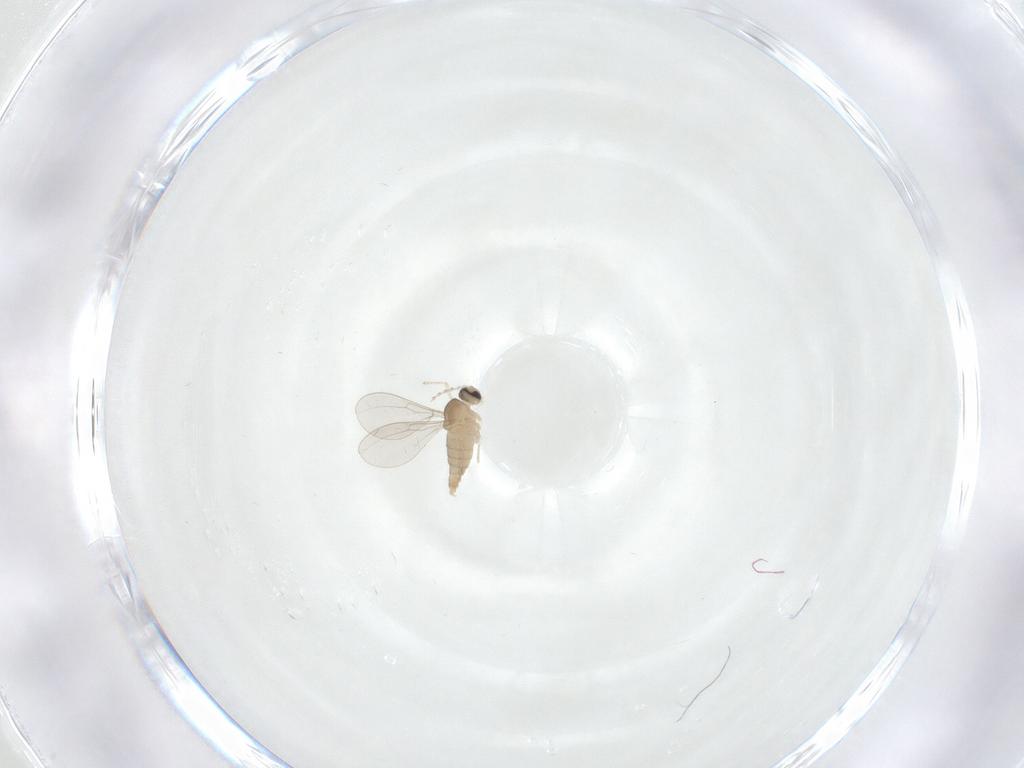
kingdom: Animalia
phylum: Arthropoda
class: Insecta
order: Diptera
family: Cecidomyiidae
